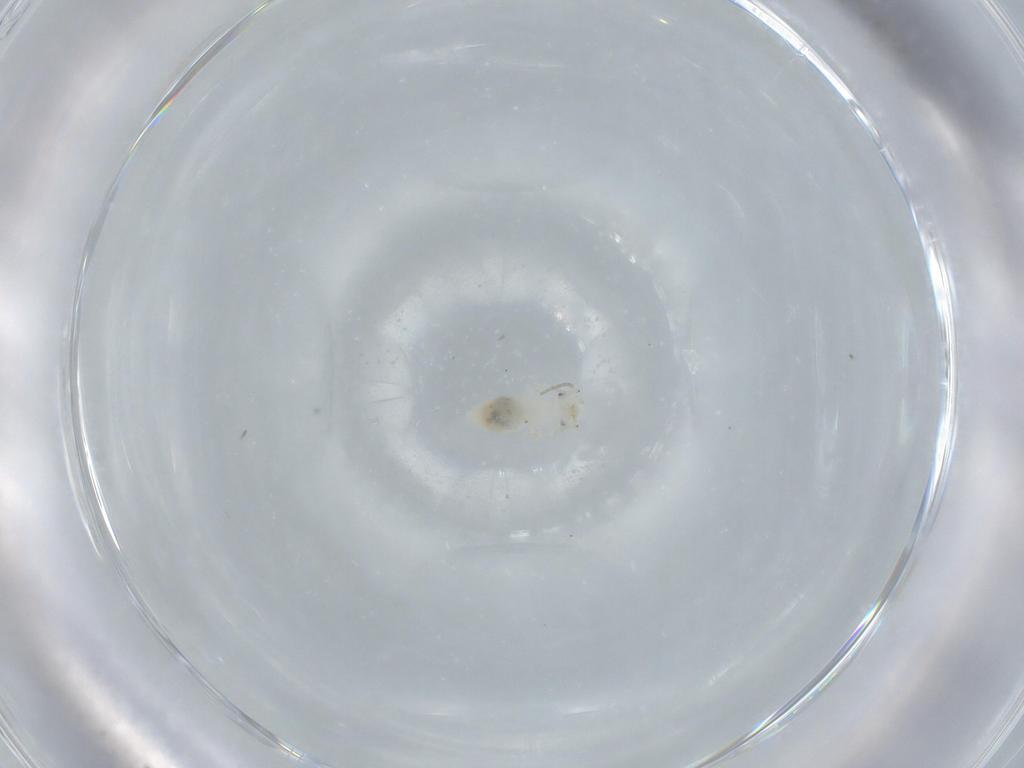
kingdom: Animalia
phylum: Arthropoda
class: Insecta
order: Psocodea
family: Caeciliusidae
